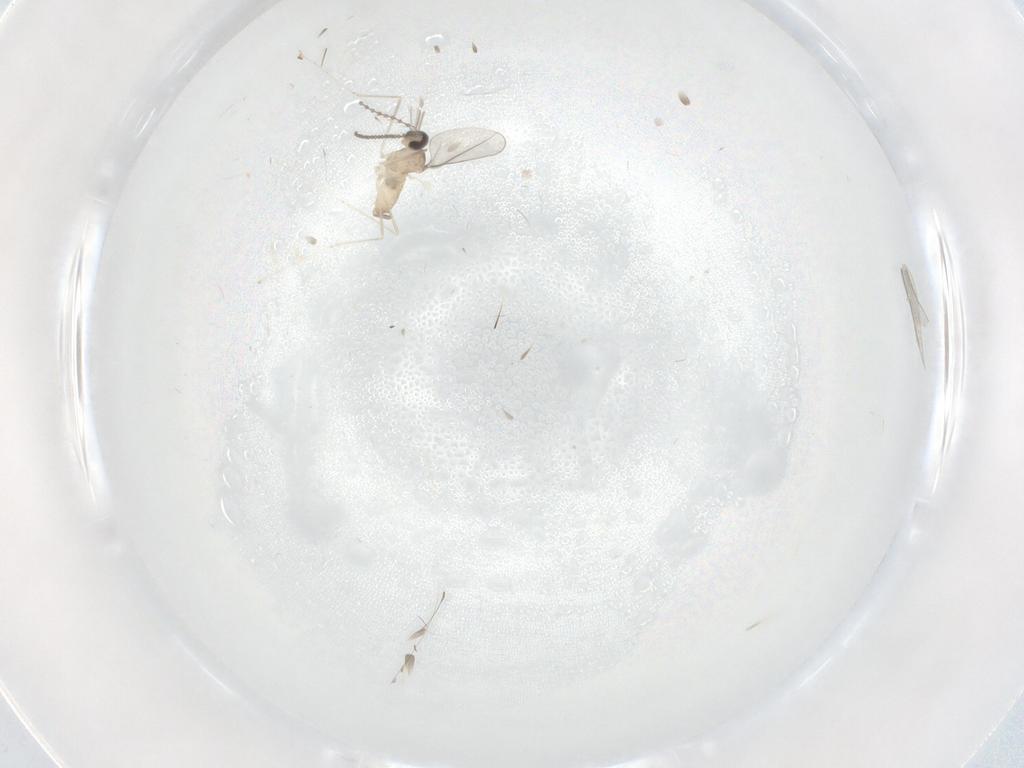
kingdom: Animalia
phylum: Arthropoda
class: Insecta
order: Diptera
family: Cecidomyiidae
